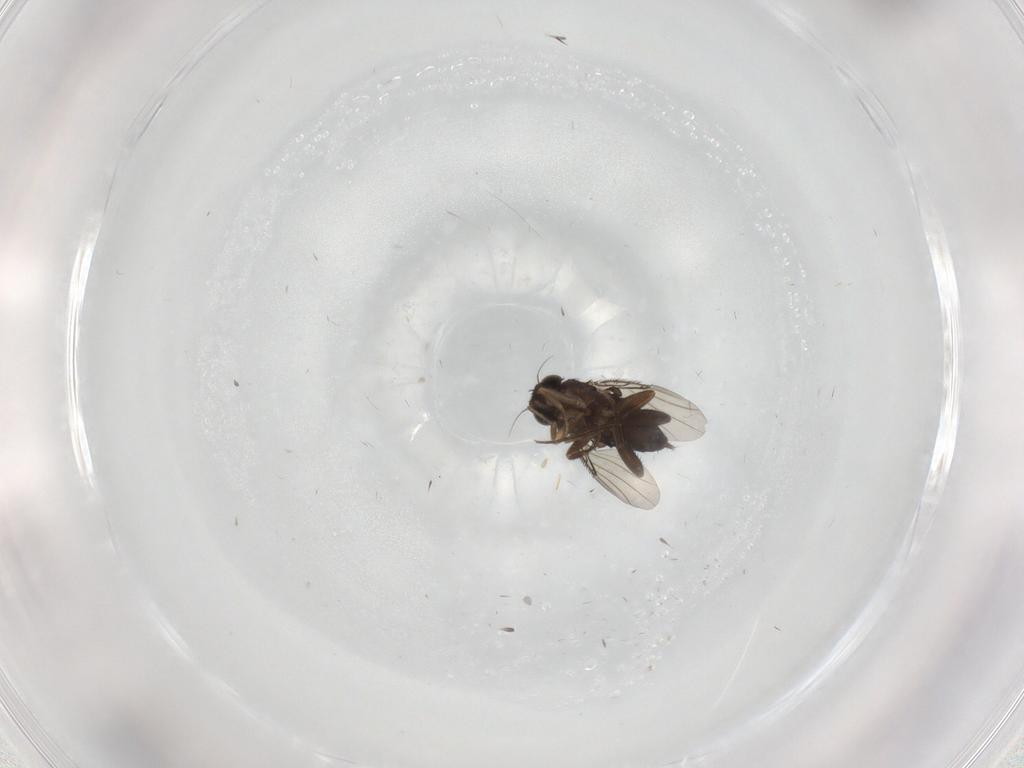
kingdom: Animalia
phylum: Arthropoda
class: Insecta
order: Diptera
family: Phoridae
